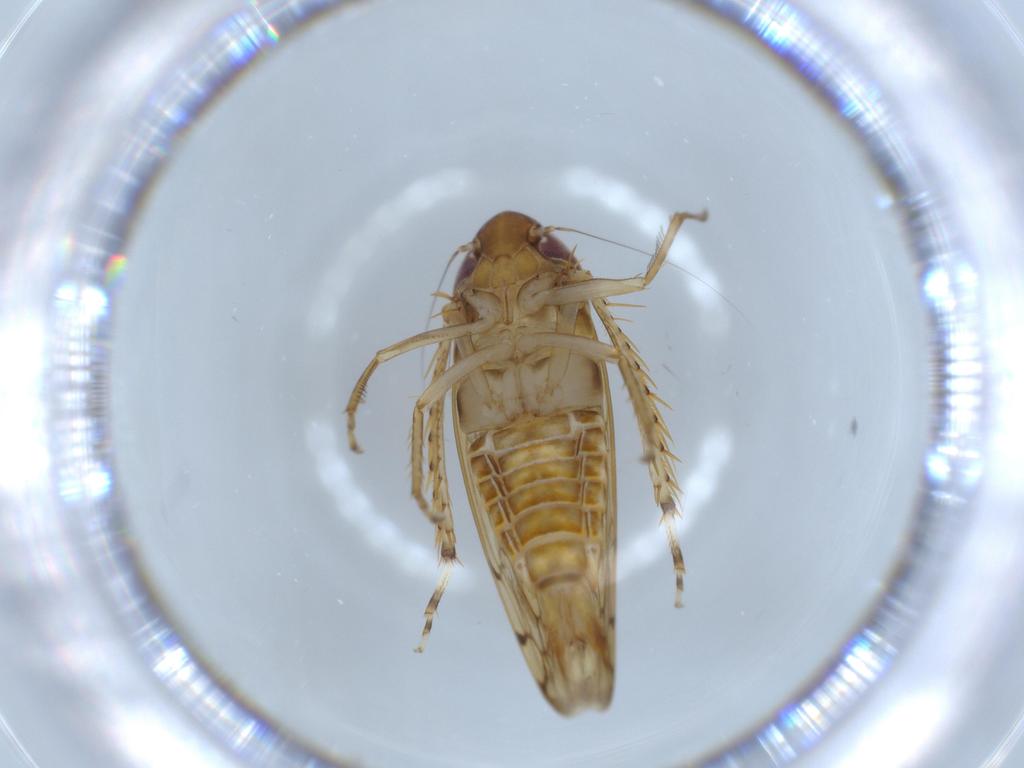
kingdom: Animalia
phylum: Arthropoda
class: Insecta
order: Hemiptera
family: Cicadellidae
